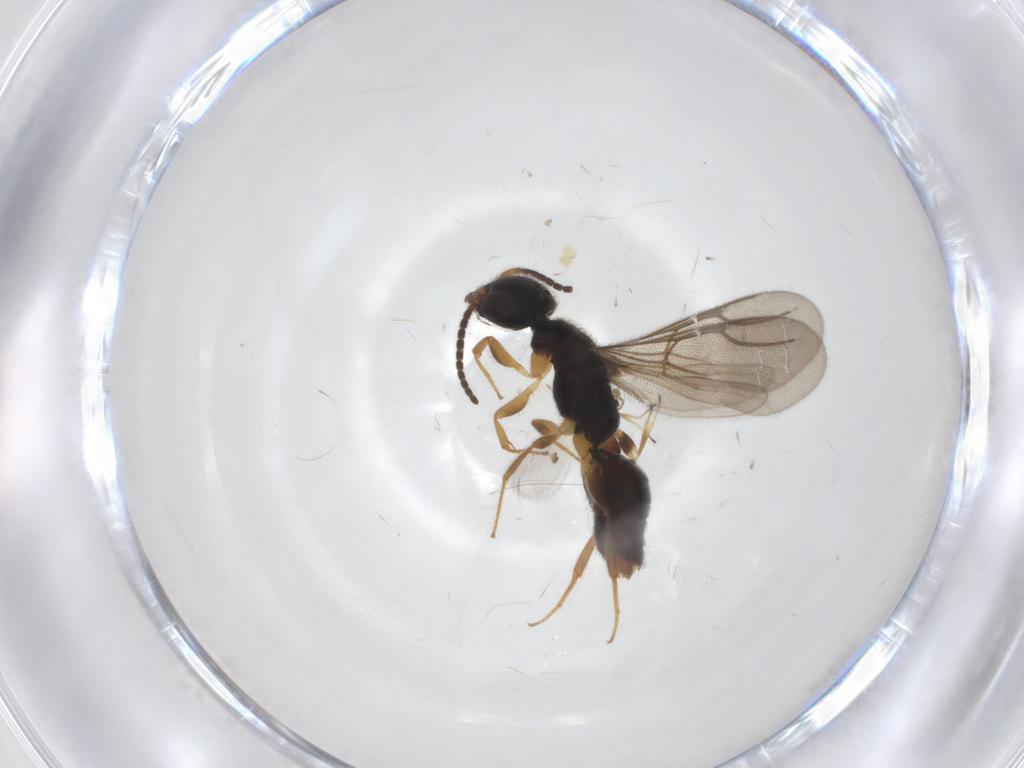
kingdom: Animalia
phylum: Arthropoda
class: Insecta
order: Hymenoptera
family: Bethylidae
